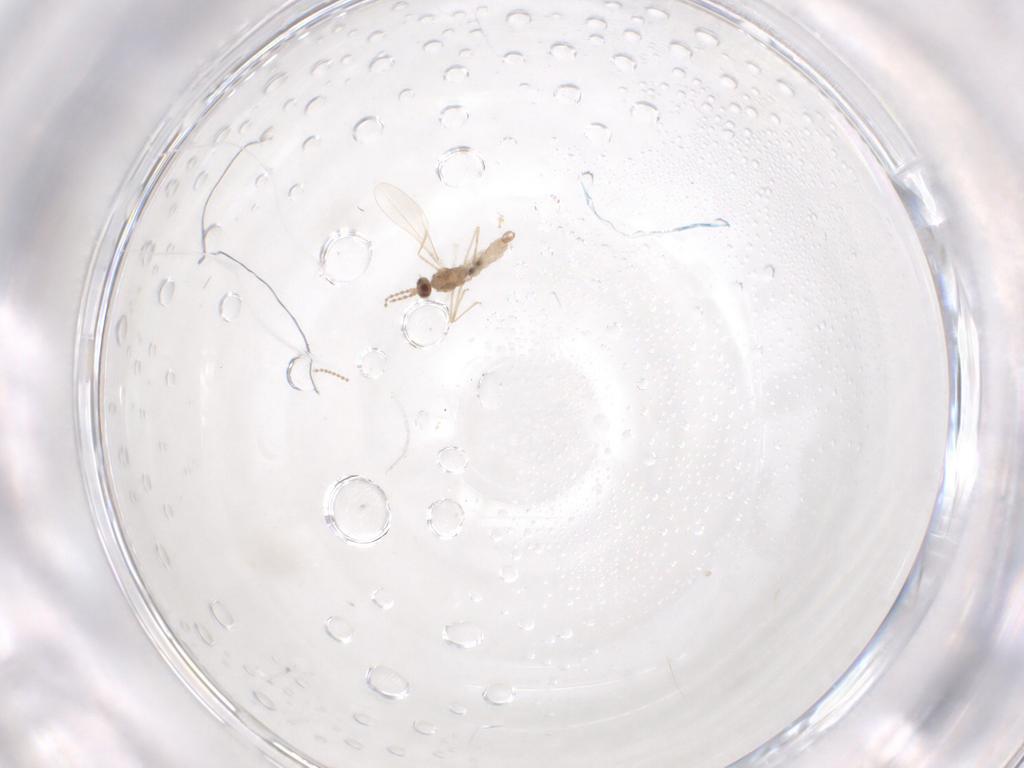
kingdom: Animalia
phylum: Arthropoda
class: Insecta
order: Diptera
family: Cecidomyiidae
